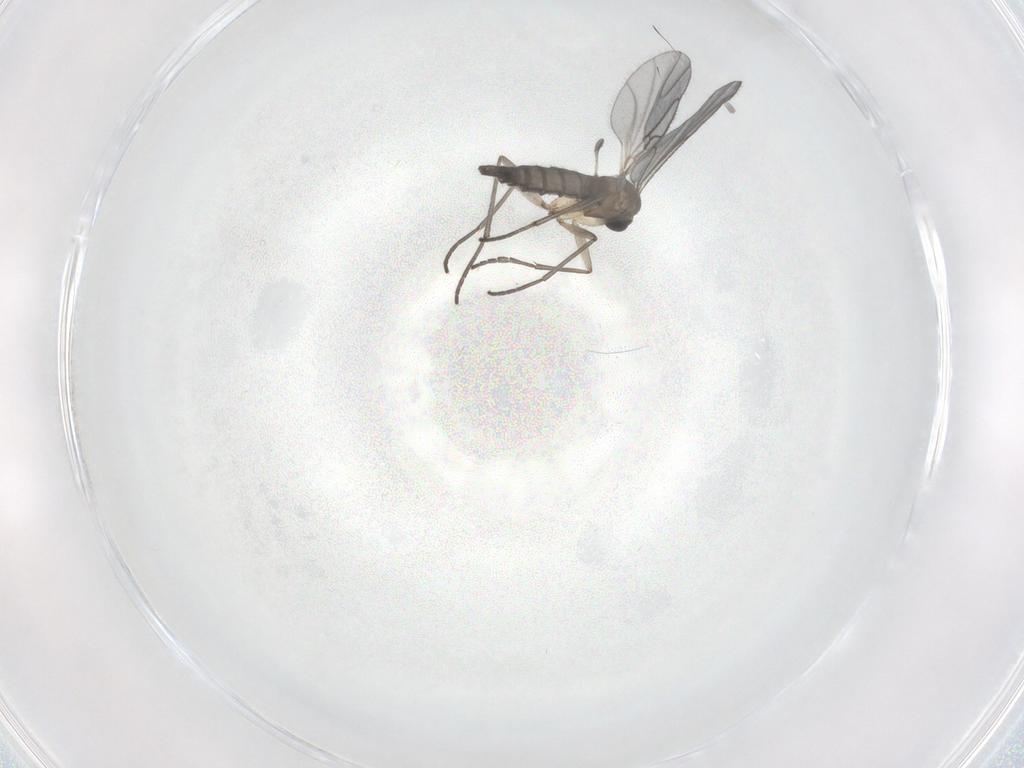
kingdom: Animalia
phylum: Arthropoda
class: Insecta
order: Diptera
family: Sciaridae
